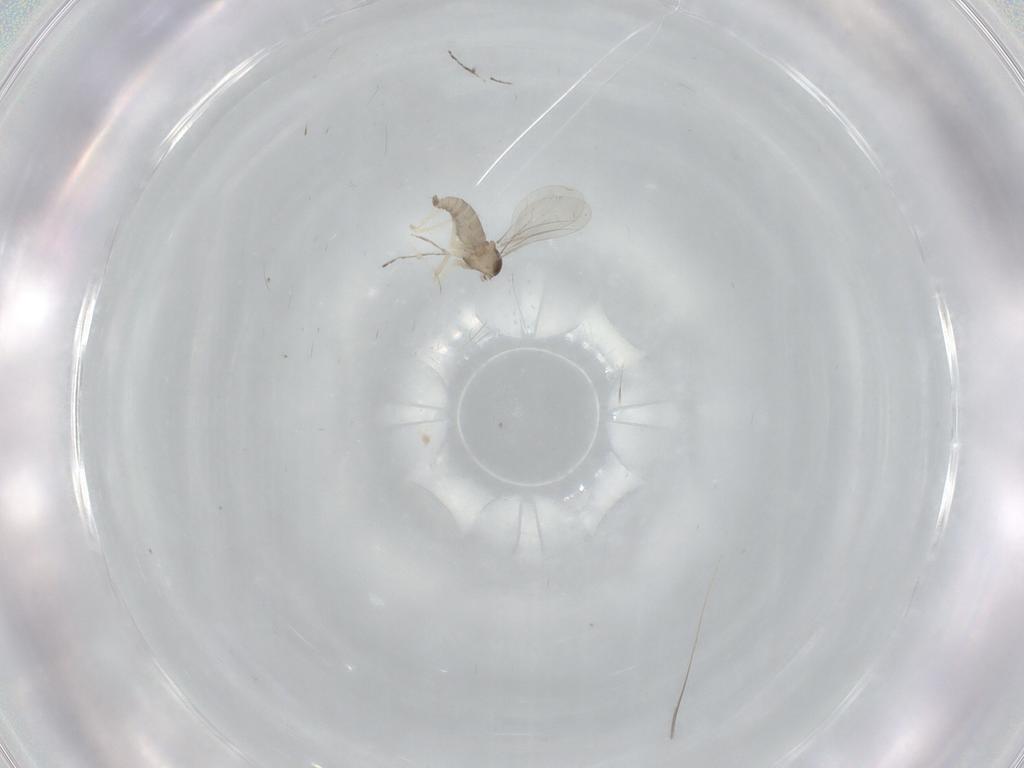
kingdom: Animalia
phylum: Arthropoda
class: Insecta
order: Diptera
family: Cecidomyiidae
